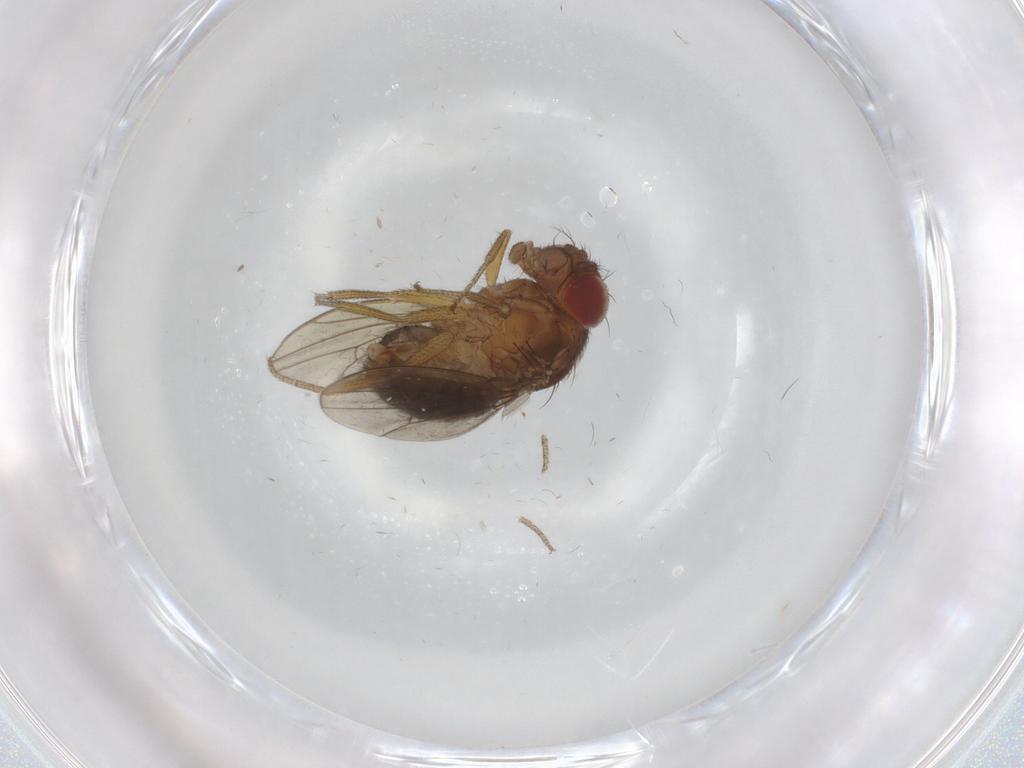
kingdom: Animalia
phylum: Arthropoda
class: Insecta
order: Diptera
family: Drosophilidae
